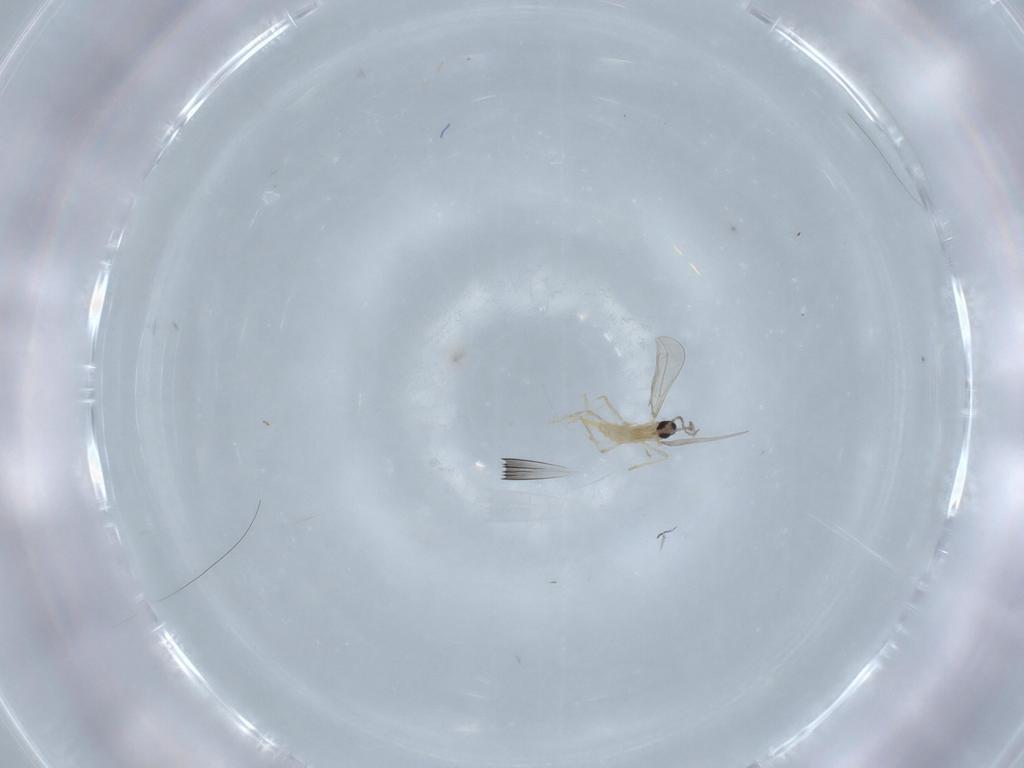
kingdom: Animalia
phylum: Arthropoda
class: Insecta
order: Diptera
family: Cecidomyiidae
